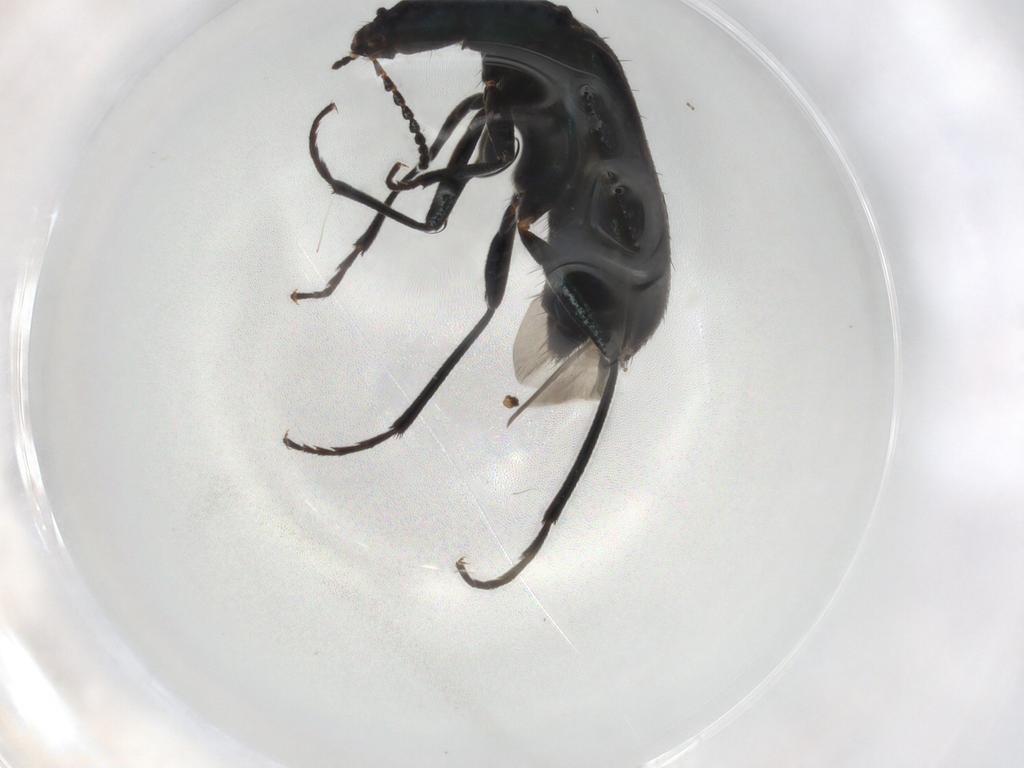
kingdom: Animalia
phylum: Arthropoda
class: Insecta
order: Coleoptera
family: Melyridae
